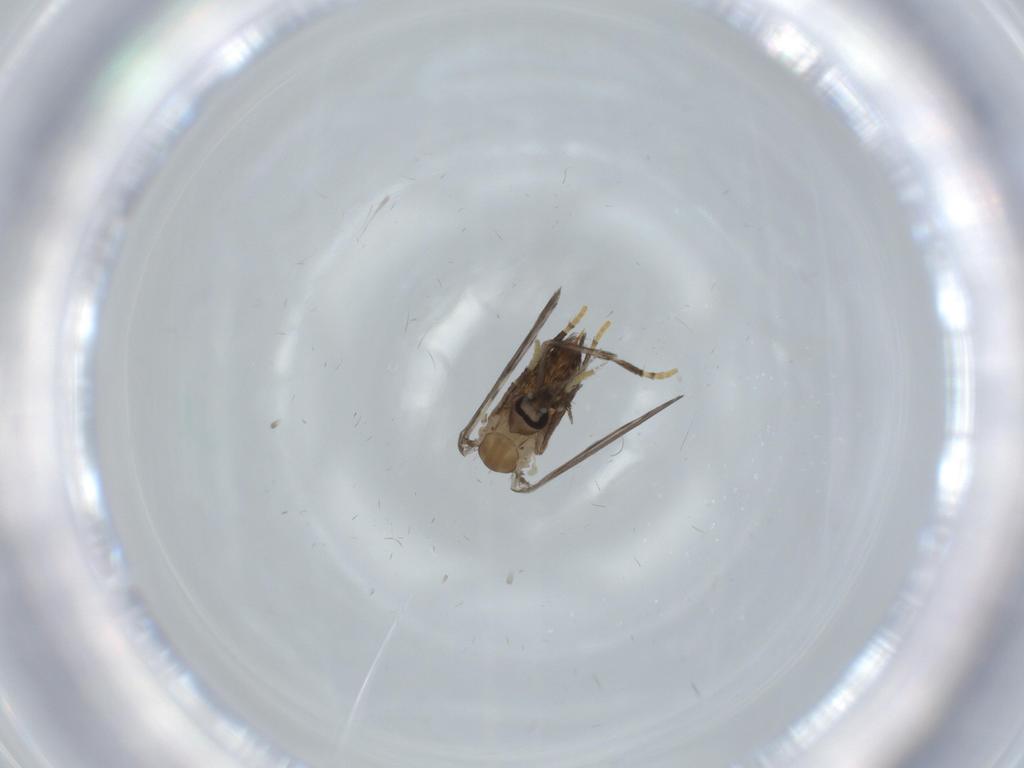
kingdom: Animalia
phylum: Arthropoda
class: Insecta
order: Diptera
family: Psychodidae
